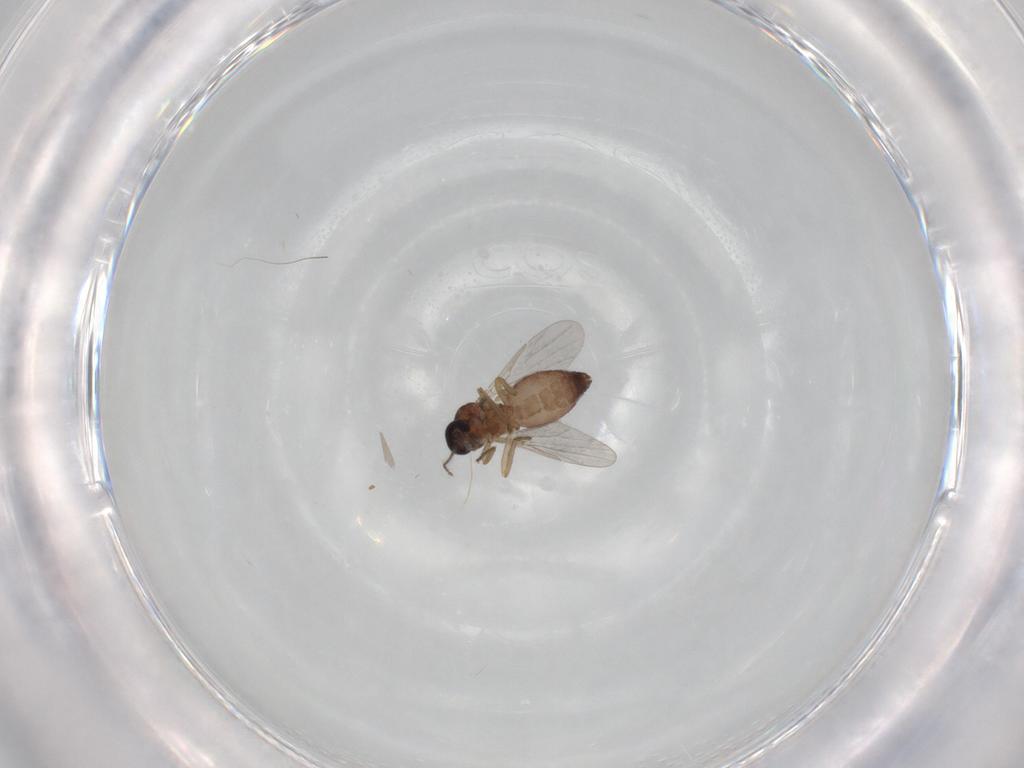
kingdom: Animalia
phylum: Arthropoda
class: Insecta
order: Diptera
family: Ceratopogonidae
